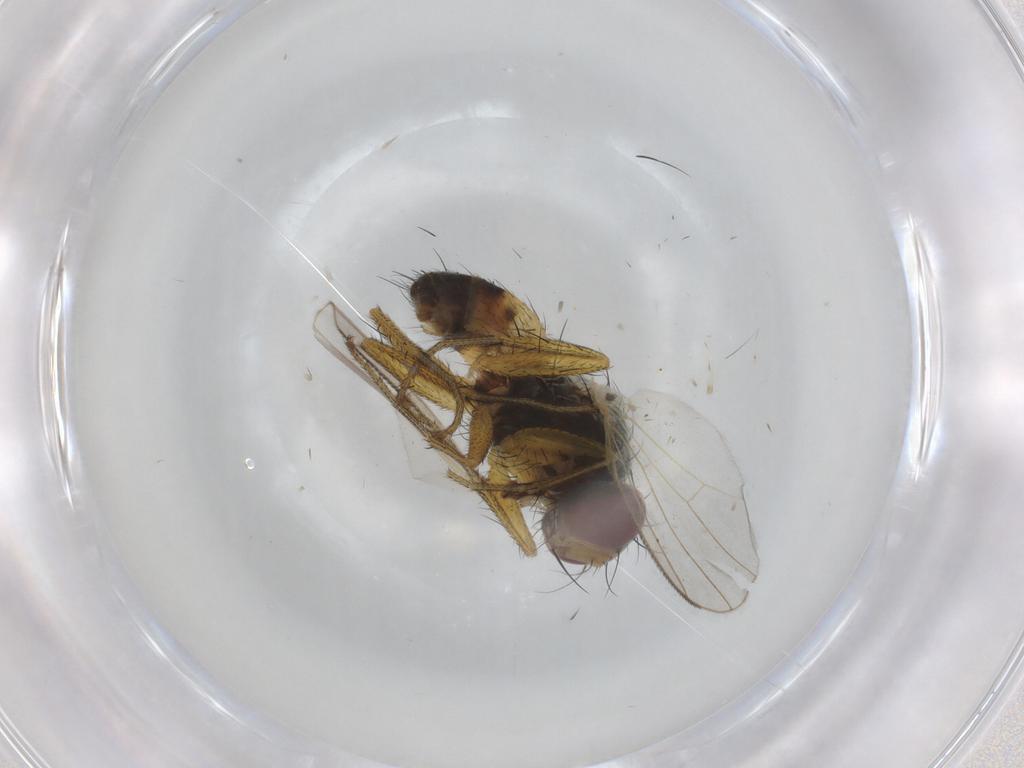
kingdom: Animalia
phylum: Arthropoda
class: Insecta
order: Diptera
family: Muscidae
